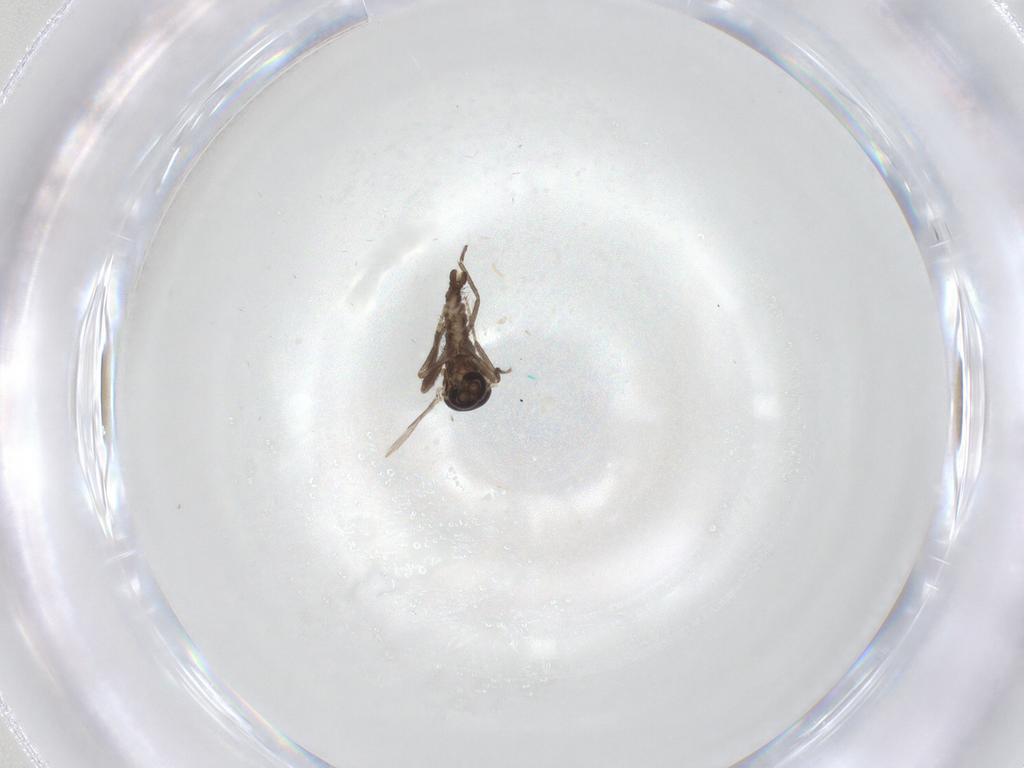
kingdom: Animalia
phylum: Arthropoda
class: Insecta
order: Diptera
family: Ceratopogonidae
